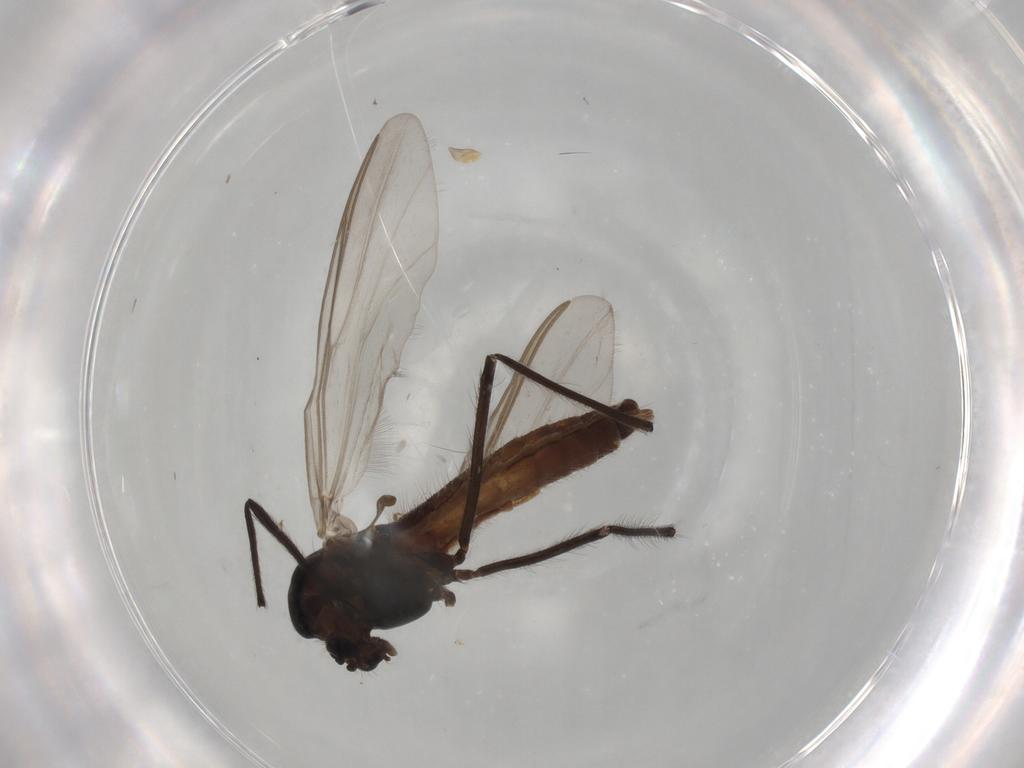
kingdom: Animalia
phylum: Arthropoda
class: Insecta
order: Diptera
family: Chironomidae
